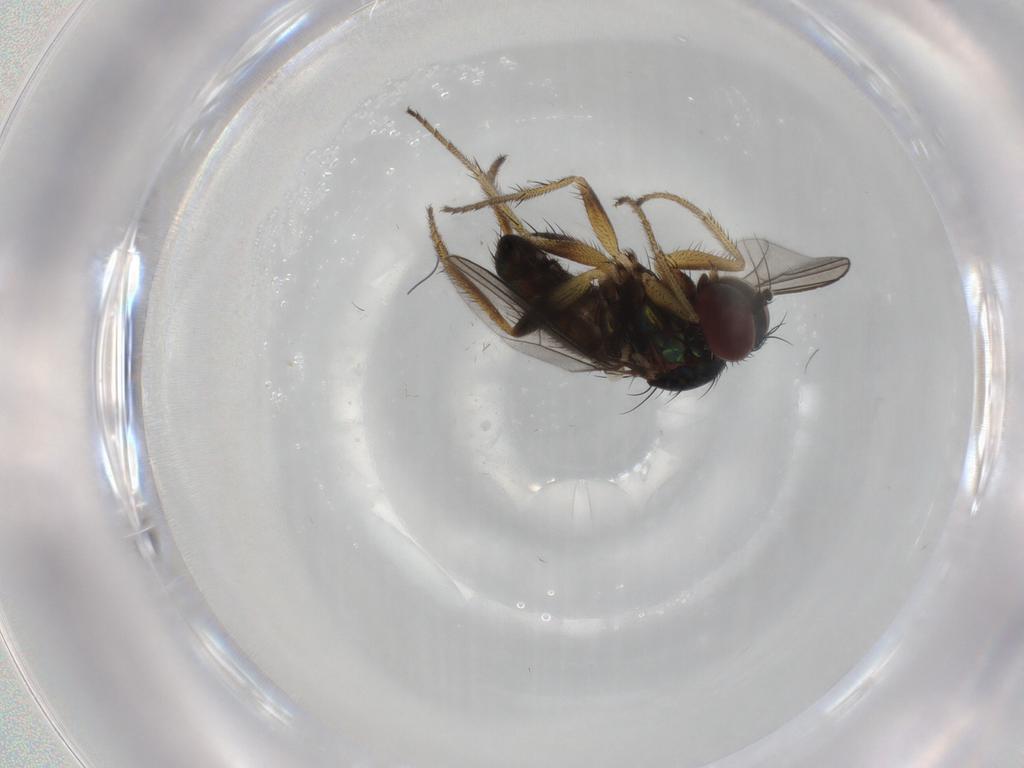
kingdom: Animalia
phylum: Arthropoda
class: Insecta
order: Diptera
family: Dolichopodidae
